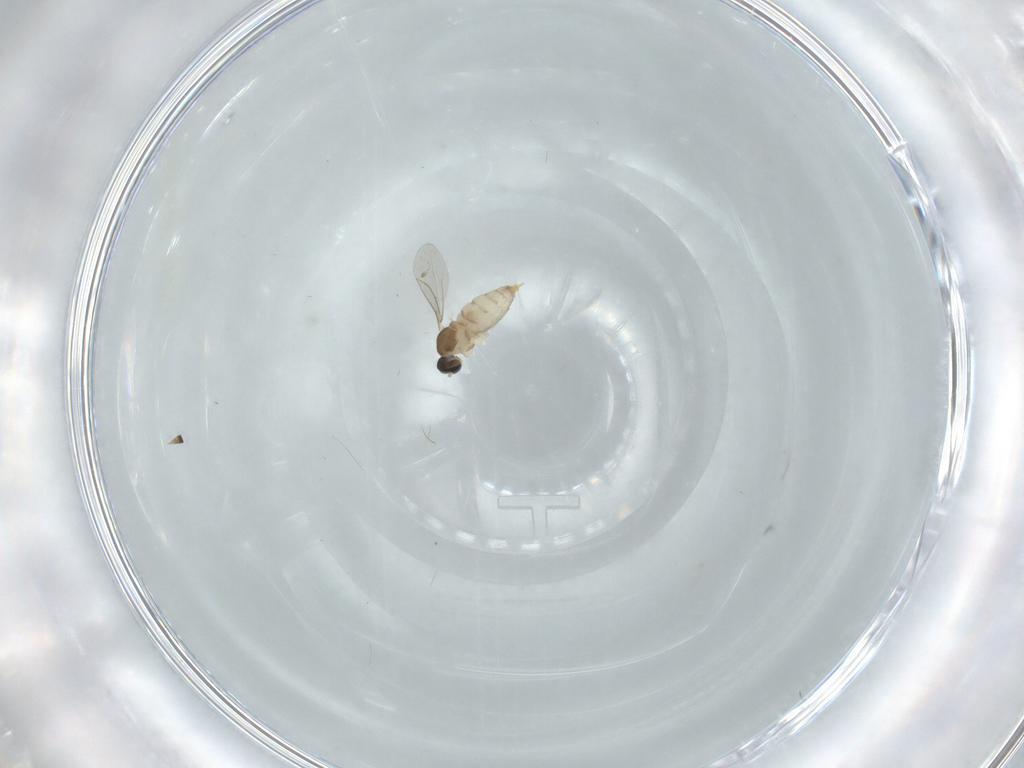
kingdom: Animalia
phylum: Arthropoda
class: Insecta
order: Diptera
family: Cecidomyiidae
